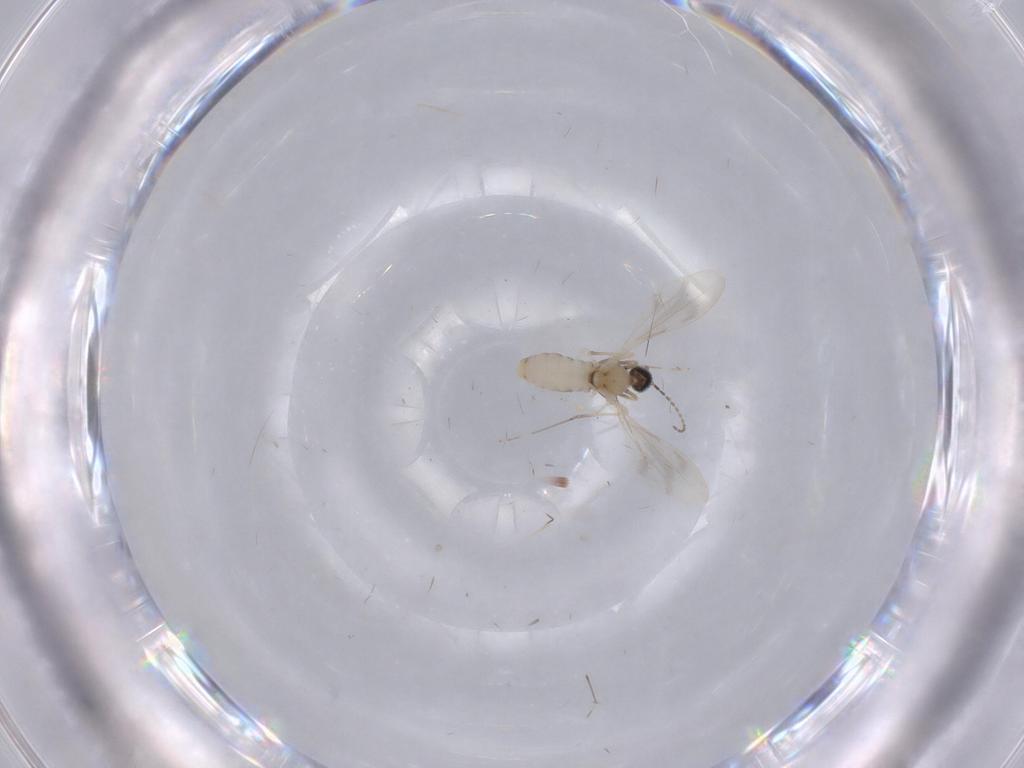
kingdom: Animalia
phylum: Arthropoda
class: Insecta
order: Diptera
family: Cecidomyiidae
